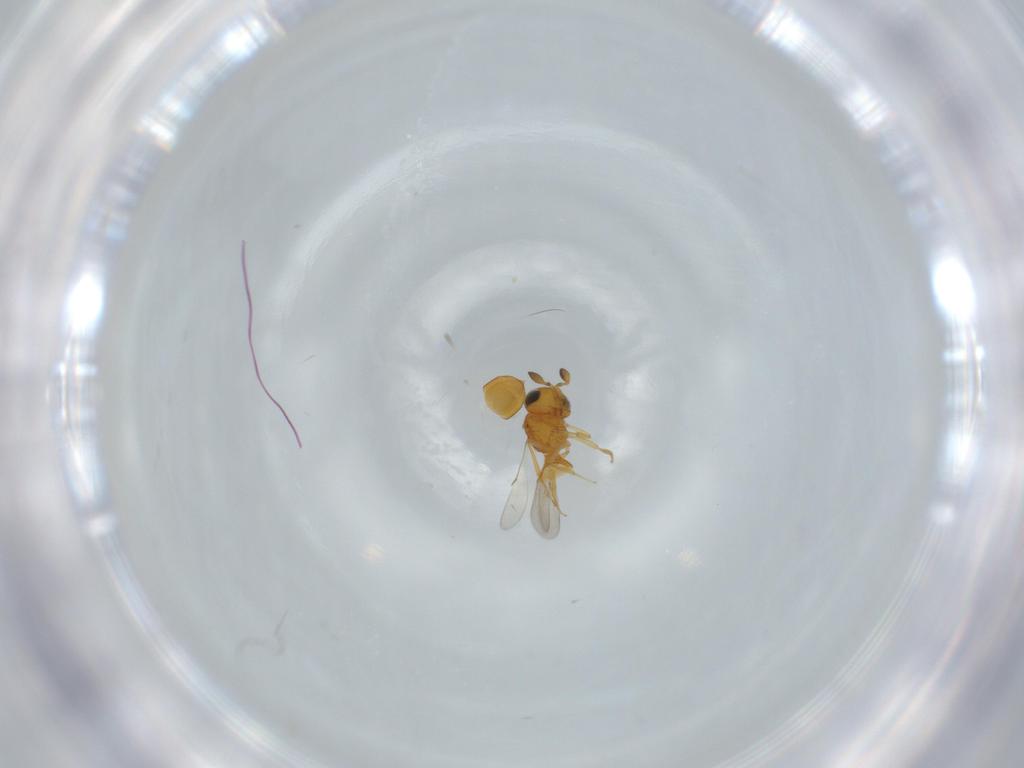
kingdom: Animalia
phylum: Arthropoda
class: Insecta
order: Hymenoptera
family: Scelionidae
